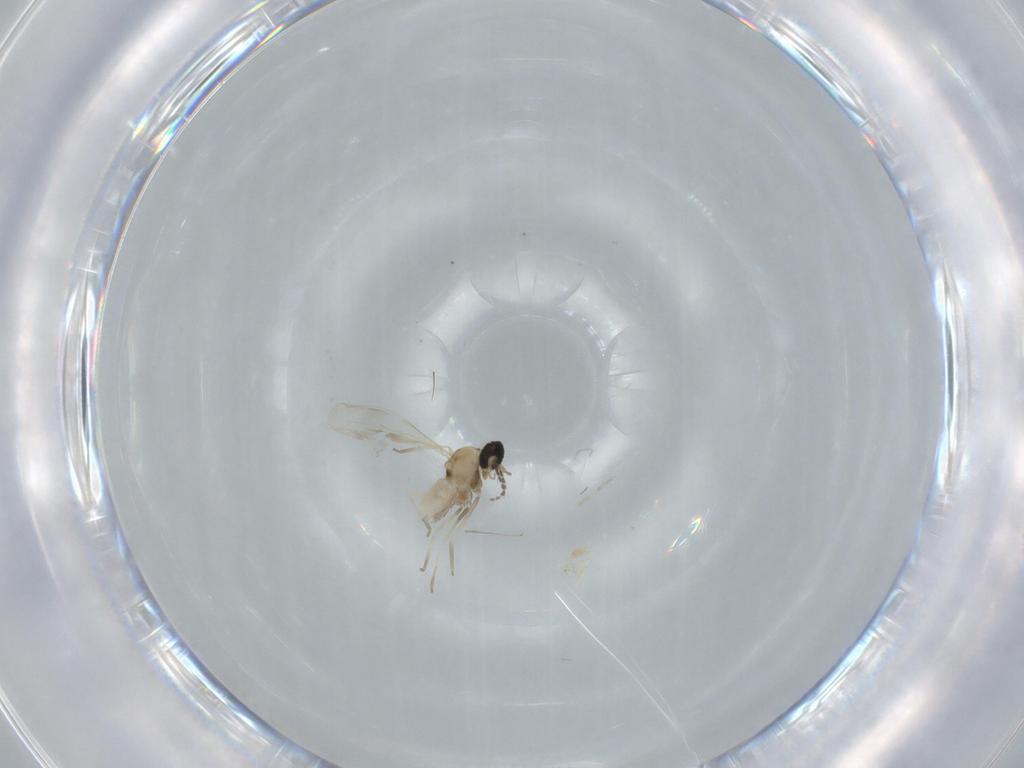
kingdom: Animalia
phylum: Arthropoda
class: Insecta
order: Diptera
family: Cecidomyiidae
